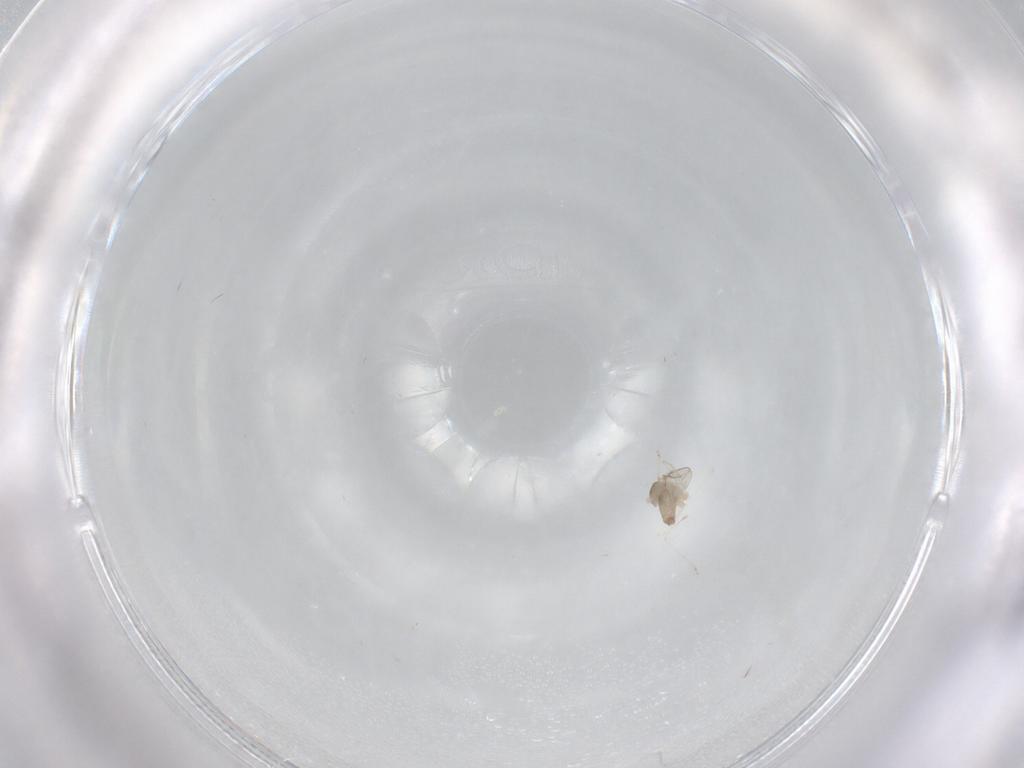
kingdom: Animalia
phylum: Arthropoda
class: Insecta
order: Diptera
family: Cecidomyiidae
